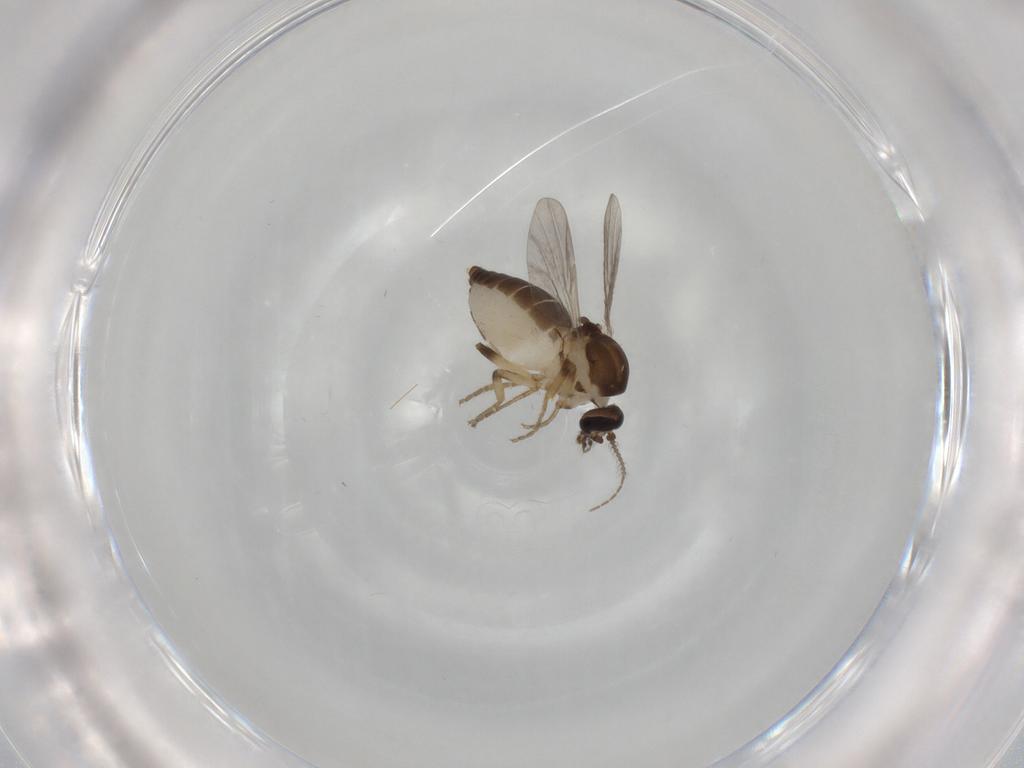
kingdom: Animalia
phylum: Arthropoda
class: Insecta
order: Diptera
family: Ceratopogonidae
